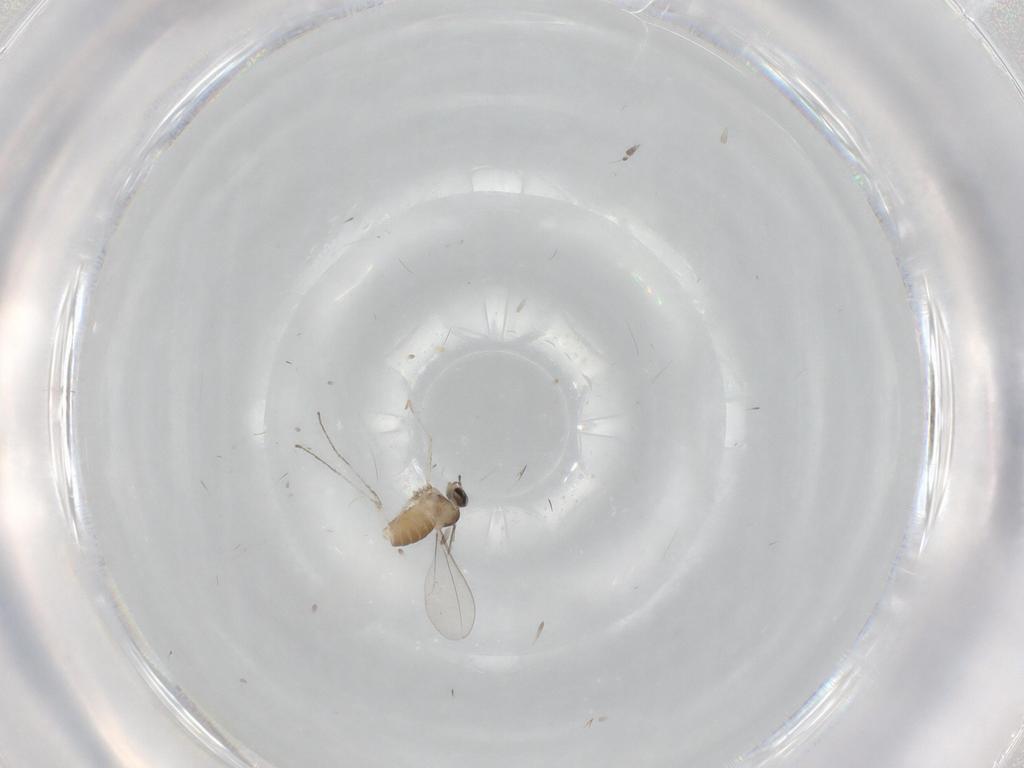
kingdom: Animalia
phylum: Arthropoda
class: Insecta
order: Diptera
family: Cecidomyiidae
